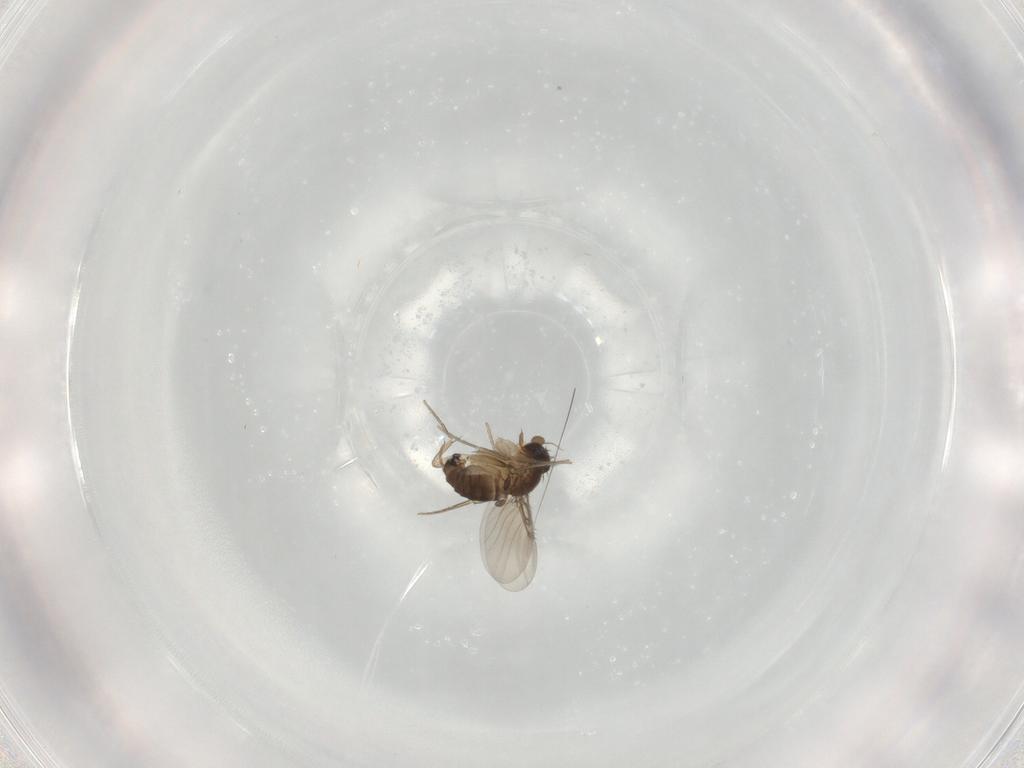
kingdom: Animalia
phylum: Arthropoda
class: Insecta
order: Diptera
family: Phoridae
